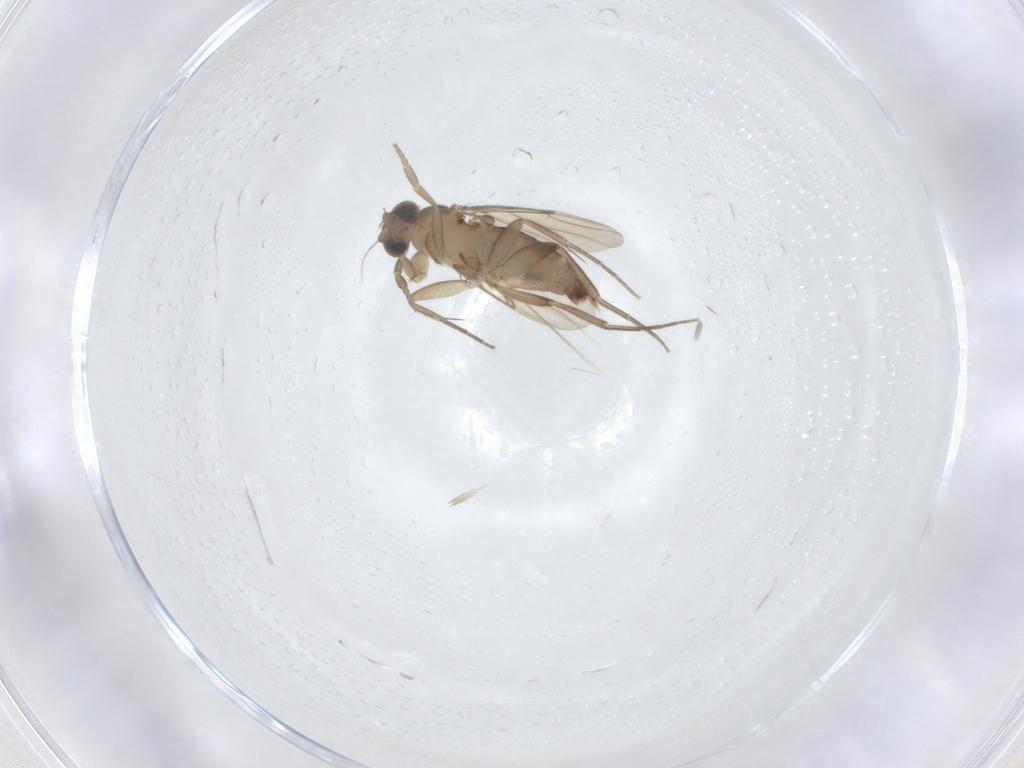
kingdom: Animalia
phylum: Arthropoda
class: Insecta
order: Diptera
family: Phoridae
